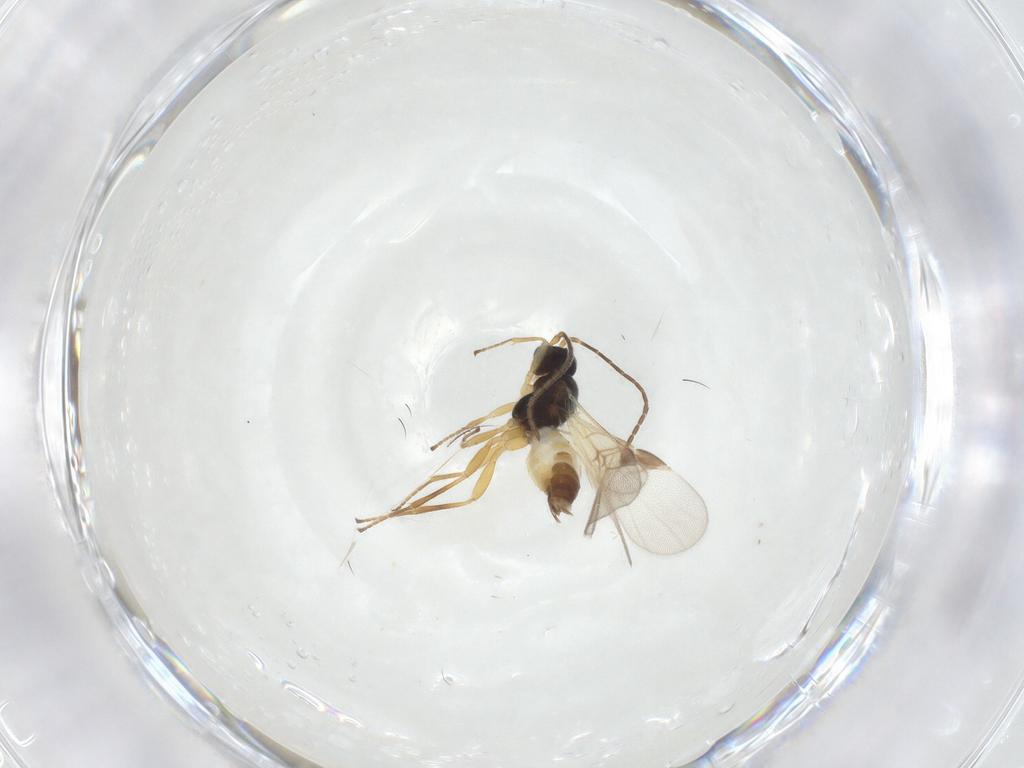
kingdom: Animalia
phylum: Arthropoda
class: Insecta
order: Hymenoptera
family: Braconidae
